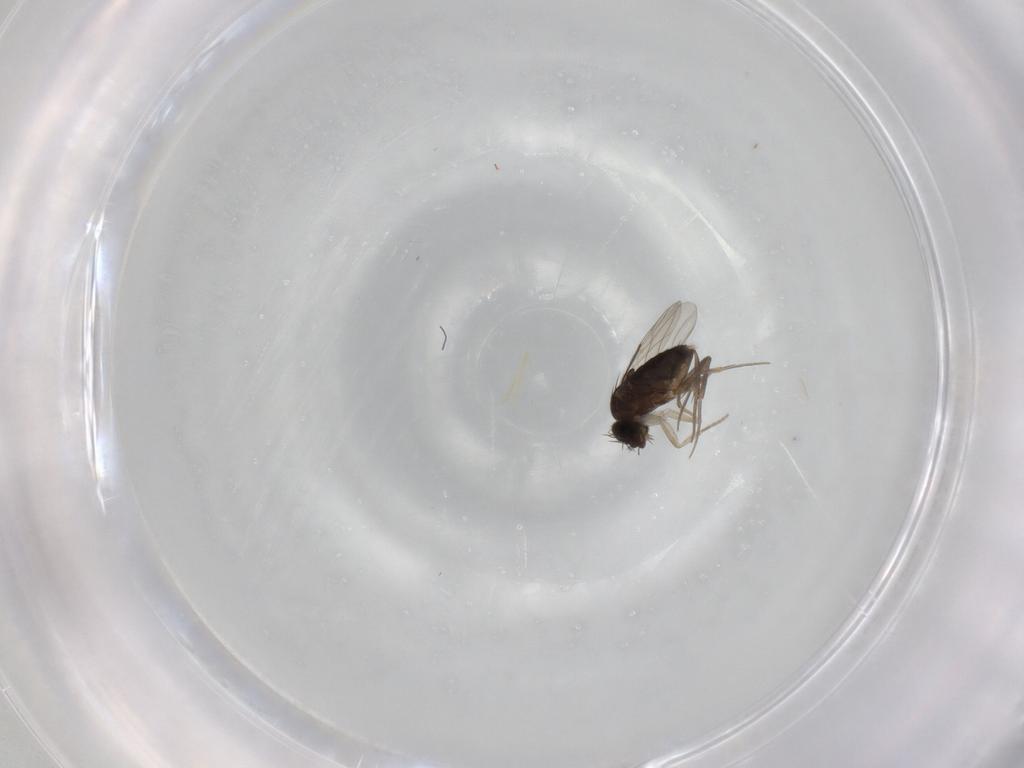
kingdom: Animalia
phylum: Arthropoda
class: Insecta
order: Diptera
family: Phoridae
